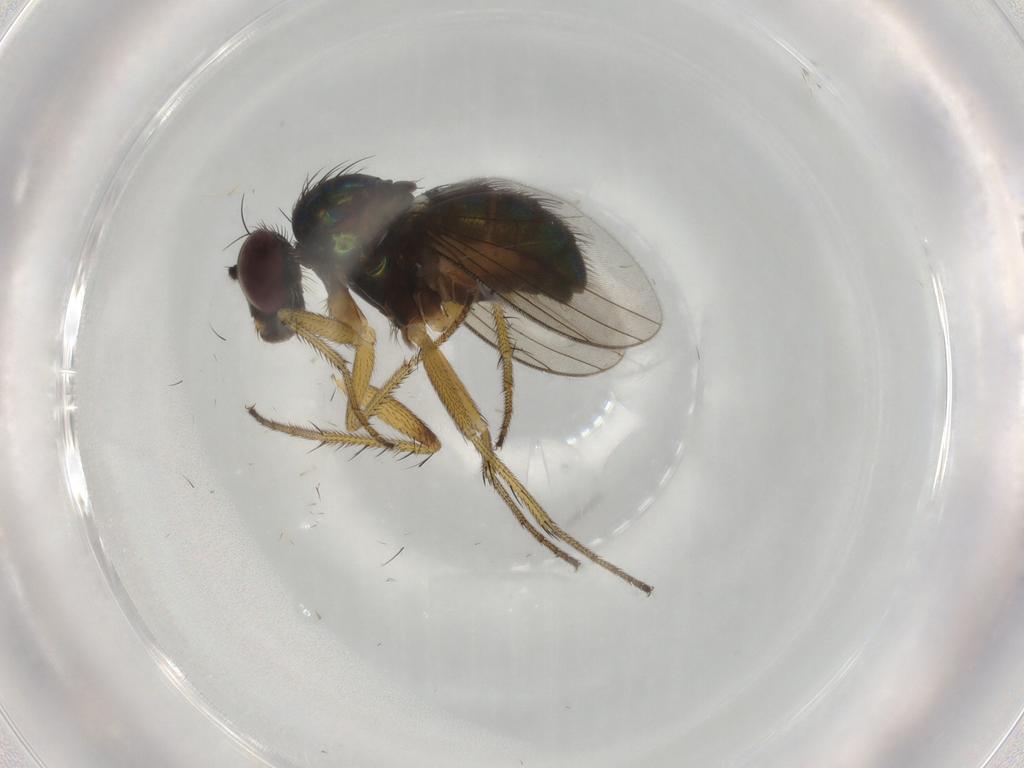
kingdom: Animalia
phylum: Arthropoda
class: Insecta
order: Diptera
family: Dolichopodidae
